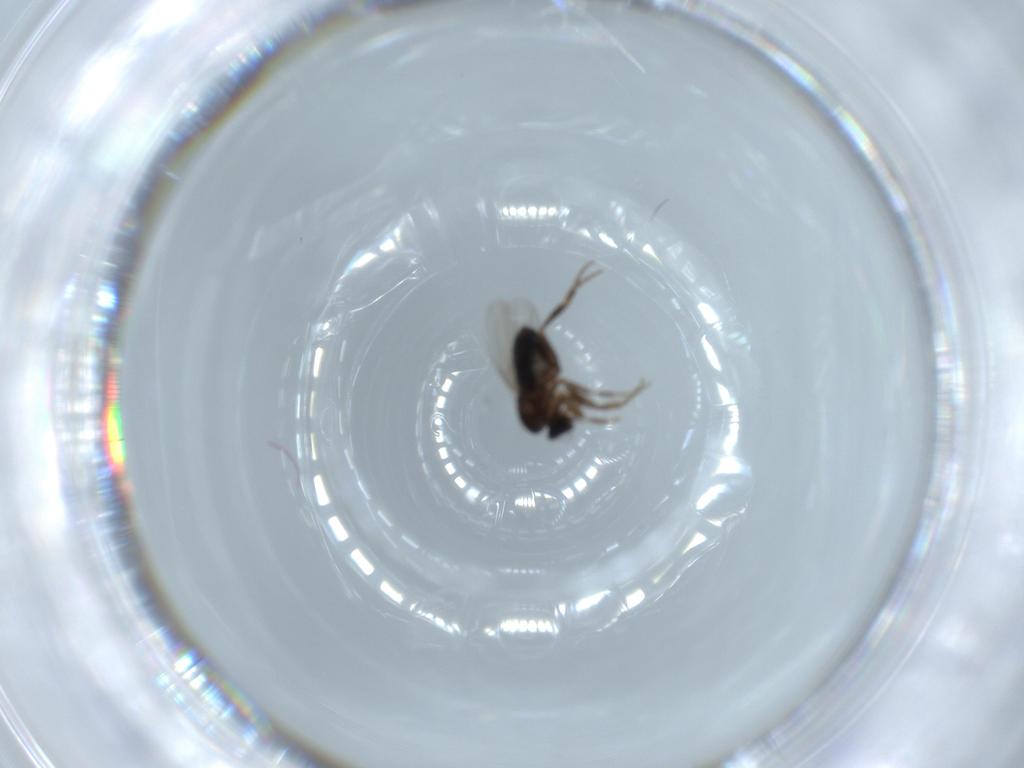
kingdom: Animalia
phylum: Arthropoda
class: Insecta
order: Diptera
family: Phoridae
